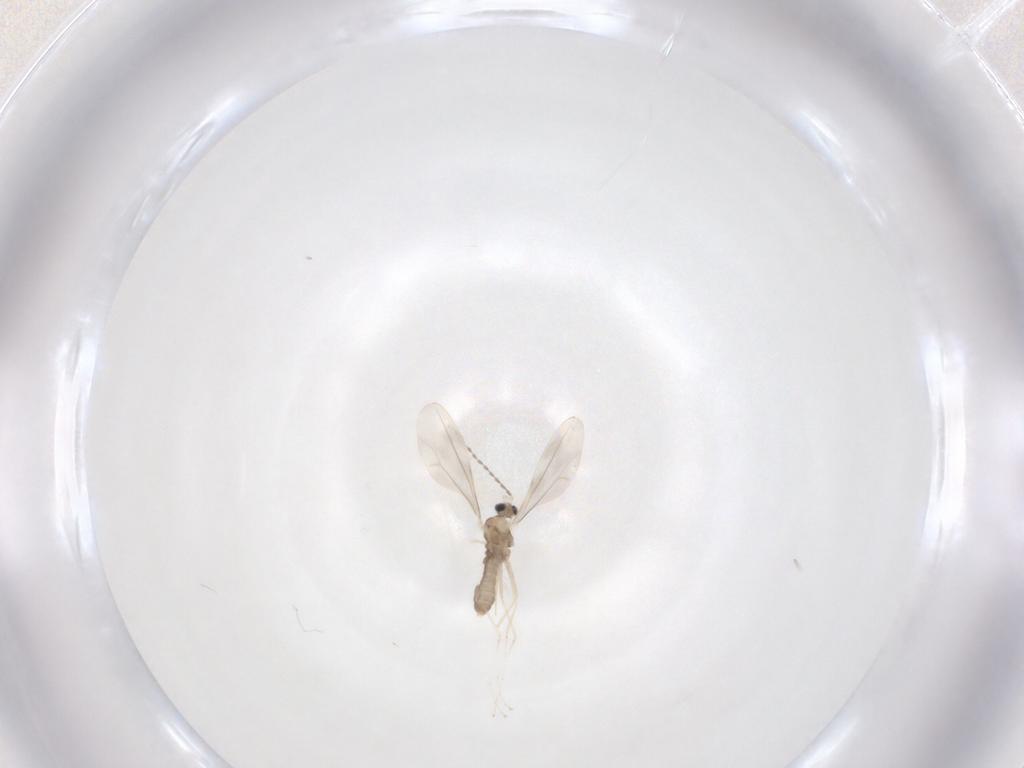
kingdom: Animalia
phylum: Arthropoda
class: Insecta
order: Diptera
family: Cecidomyiidae
